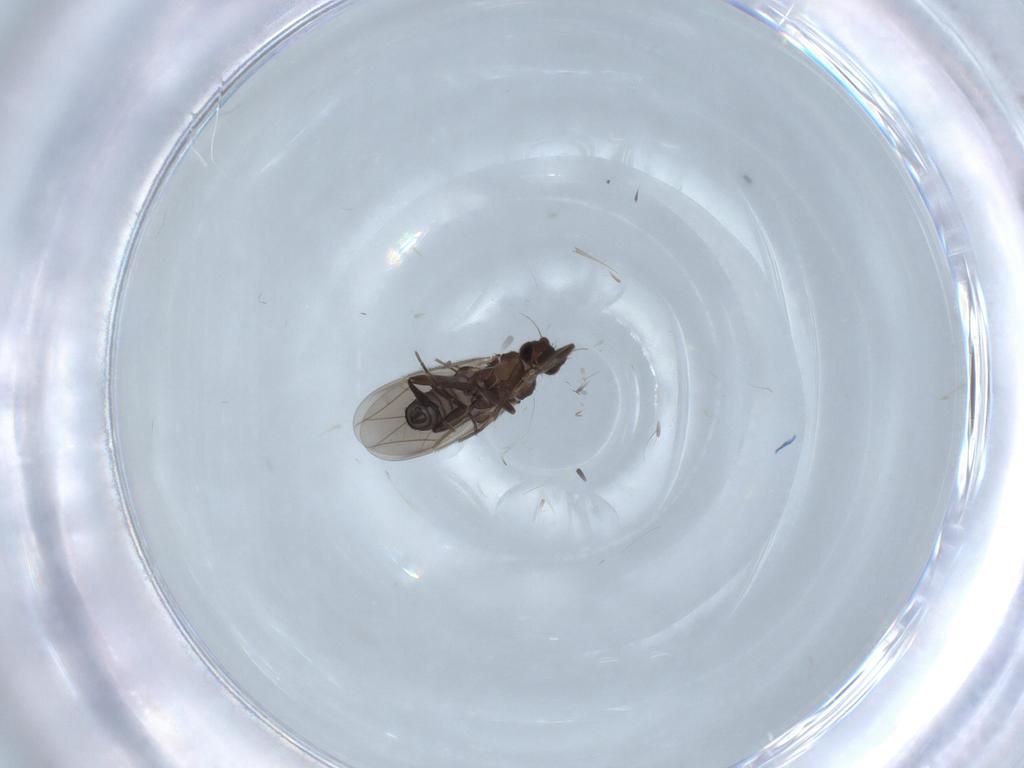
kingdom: Animalia
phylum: Arthropoda
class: Insecta
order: Diptera
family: Phoridae
